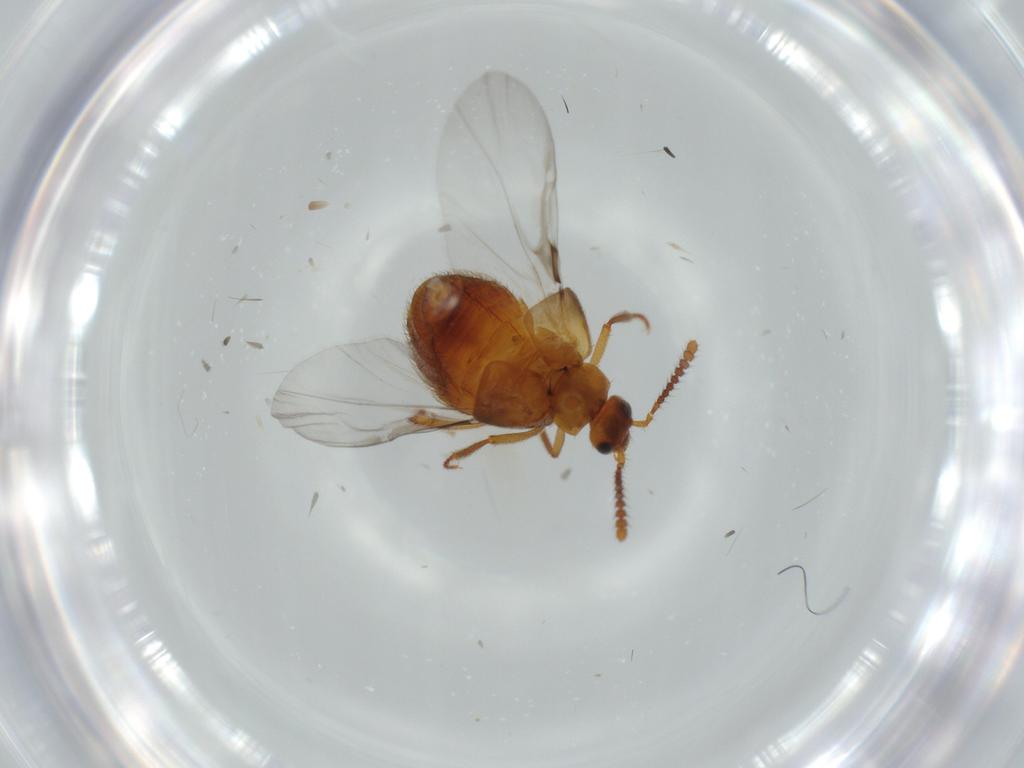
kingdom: Animalia
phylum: Arthropoda
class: Insecta
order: Coleoptera
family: Staphylinidae
